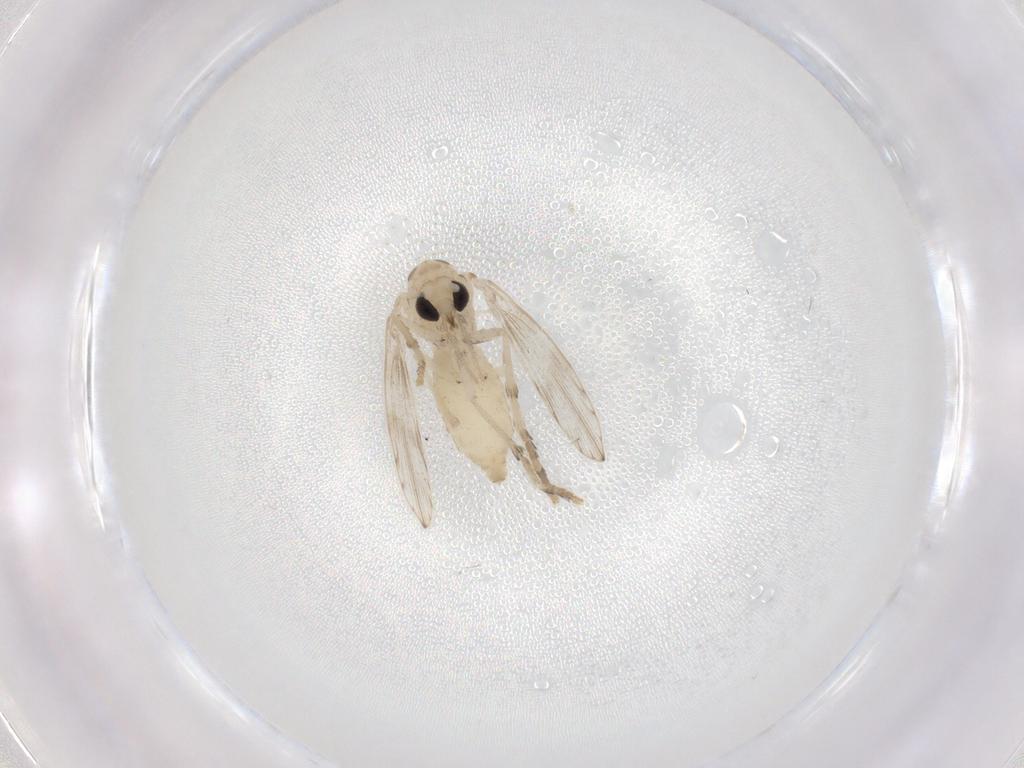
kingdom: Animalia
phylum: Arthropoda
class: Insecta
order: Diptera
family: Psychodidae
